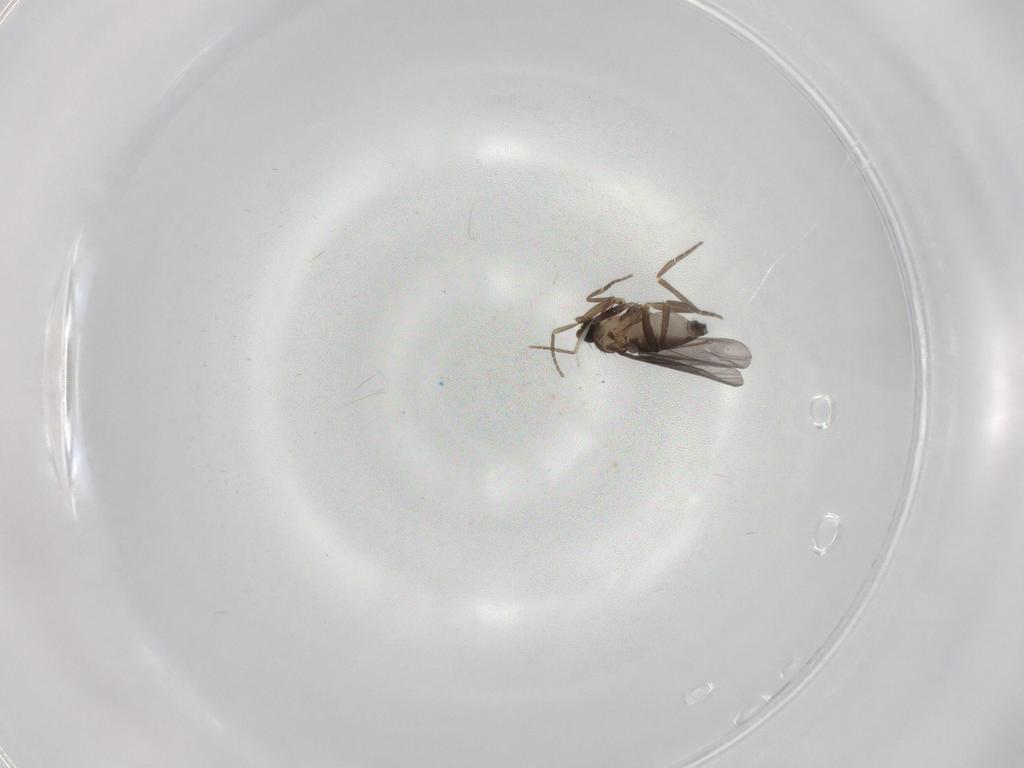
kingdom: Animalia
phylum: Arthropoda
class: Insecta
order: Diptera
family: Phoridae
